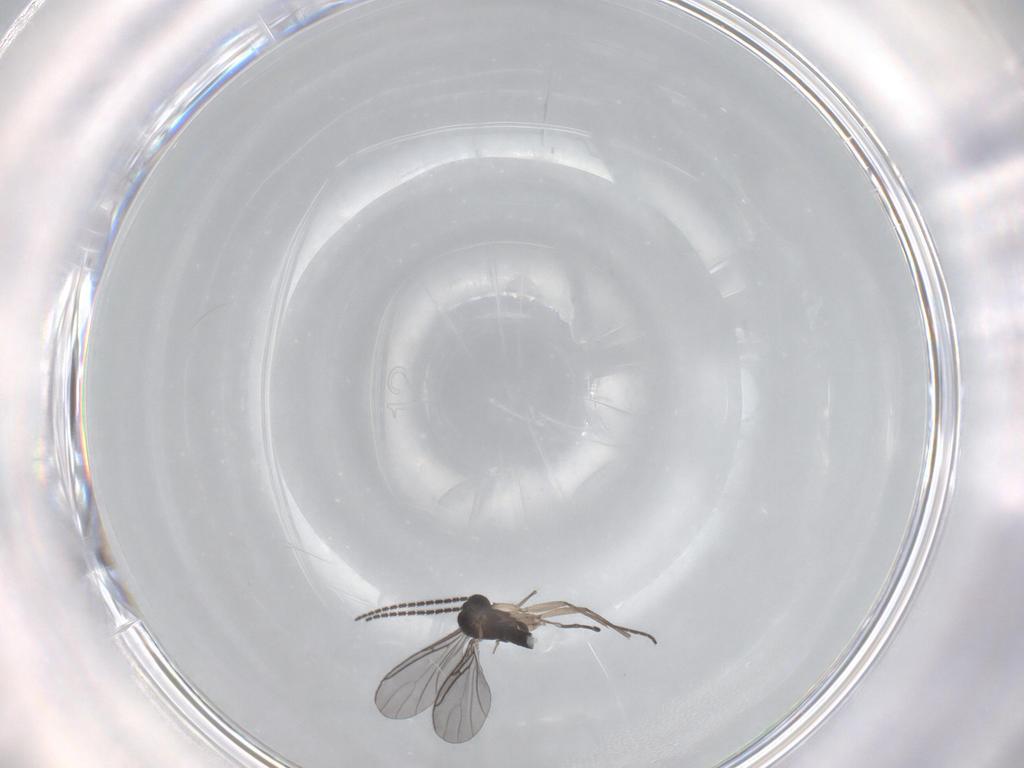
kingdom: Animalia
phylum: Arthropoda
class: Insecta
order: Diptera
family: Sciaridae
